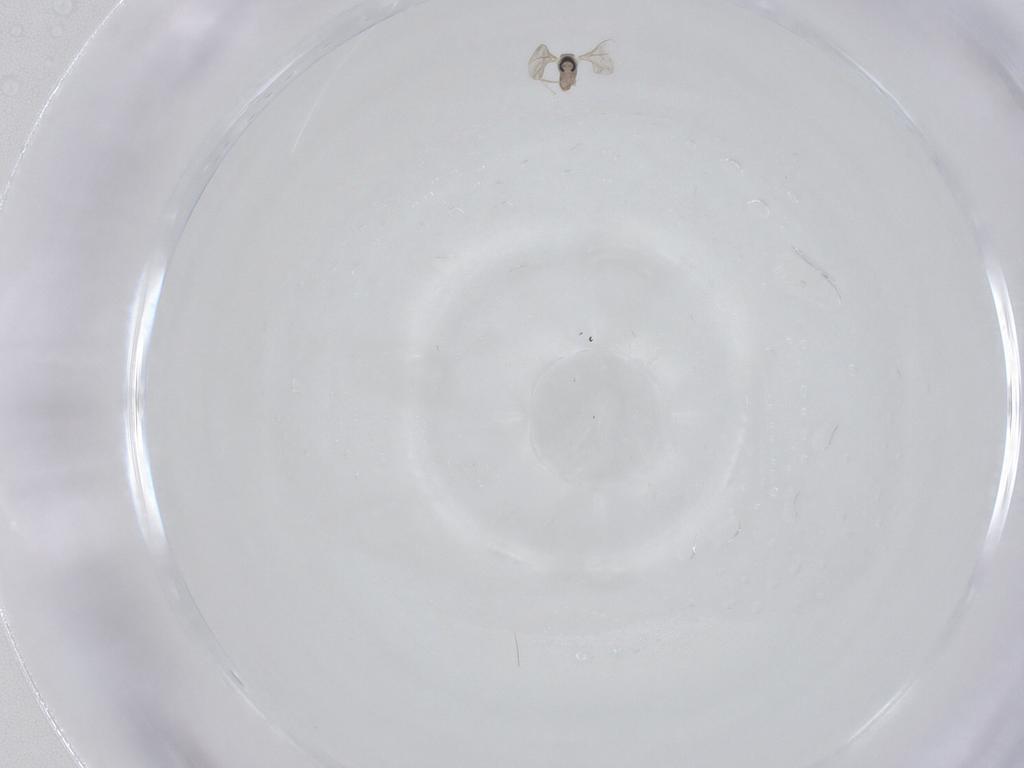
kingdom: Animalia
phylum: Arthropoda
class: Insecta
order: Diptera
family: Cecidomyiidae
